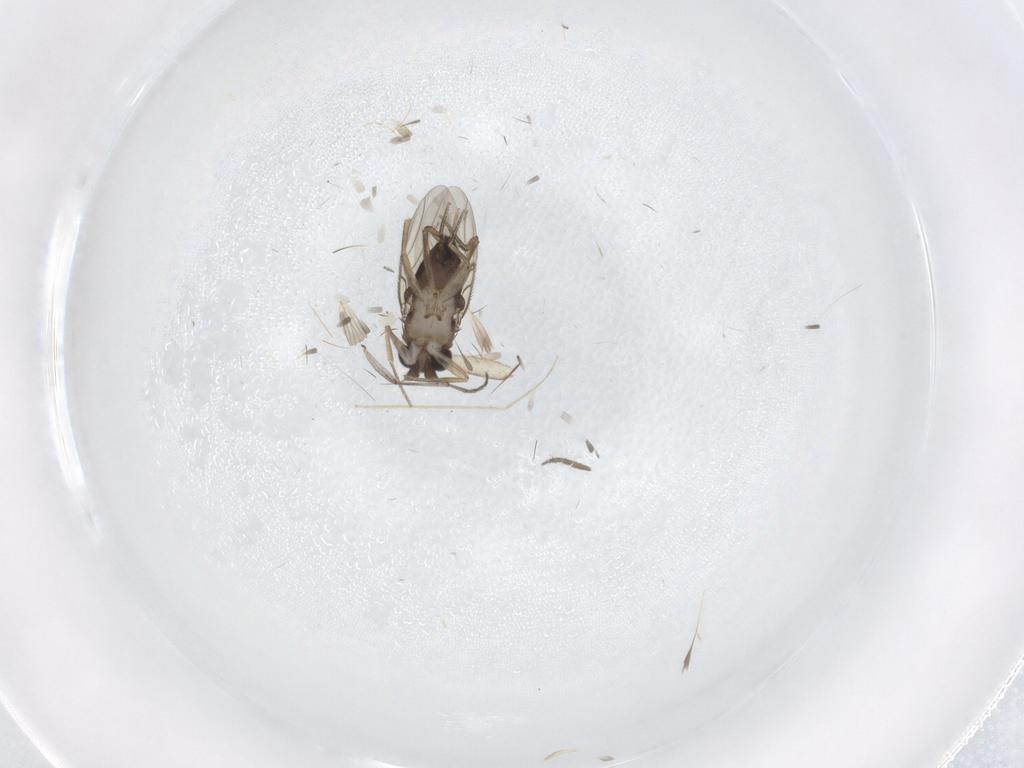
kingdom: Animalia
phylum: Arthropoda
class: Insecta
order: Diptera
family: Sciaridae
